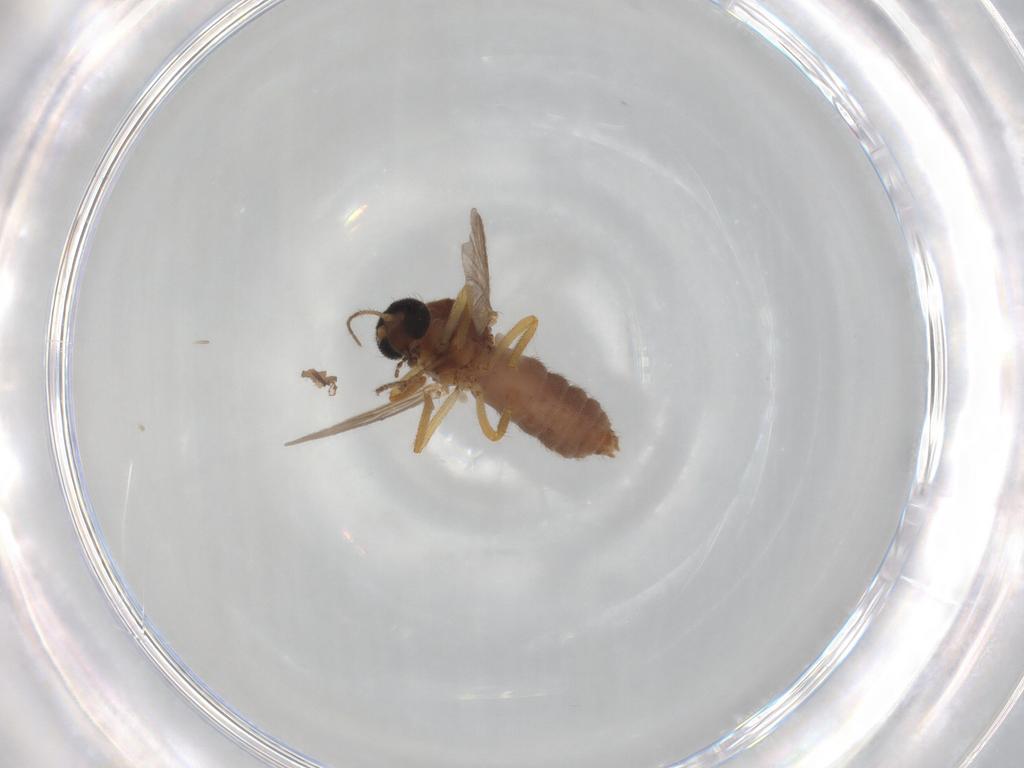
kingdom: Animalia
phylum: Arthropoda
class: Insecta
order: Diptera
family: Ceratopogonidae
